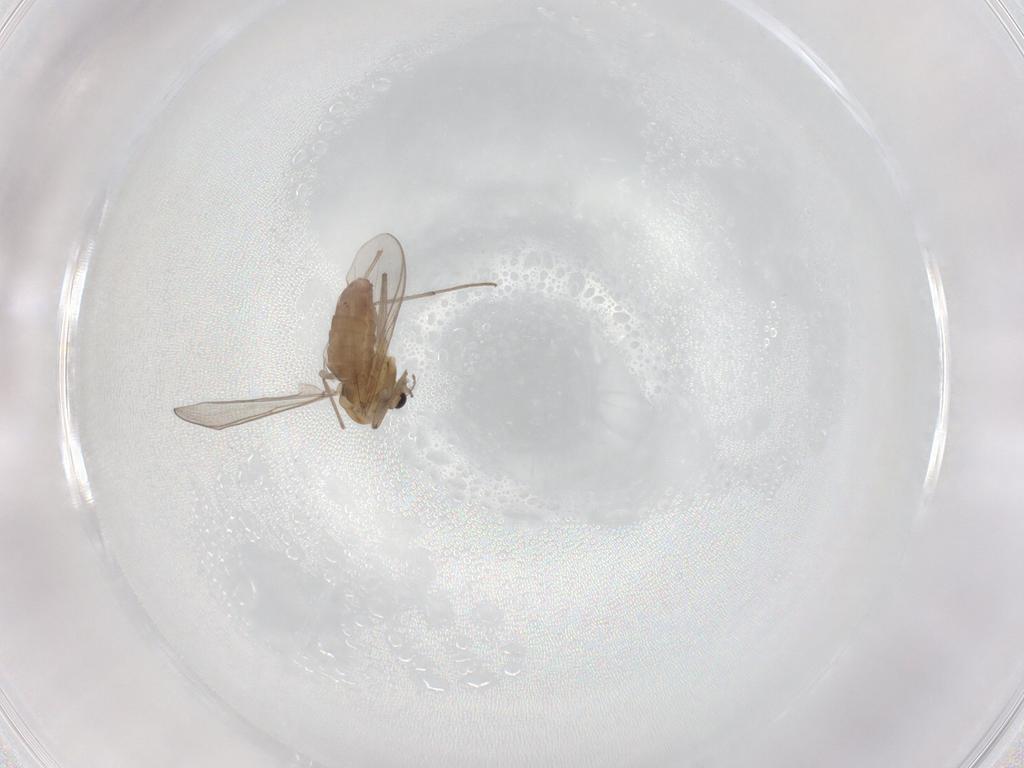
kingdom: Animalia
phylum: Arthropoda
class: Insecta
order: Diptera
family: Chironomidae
